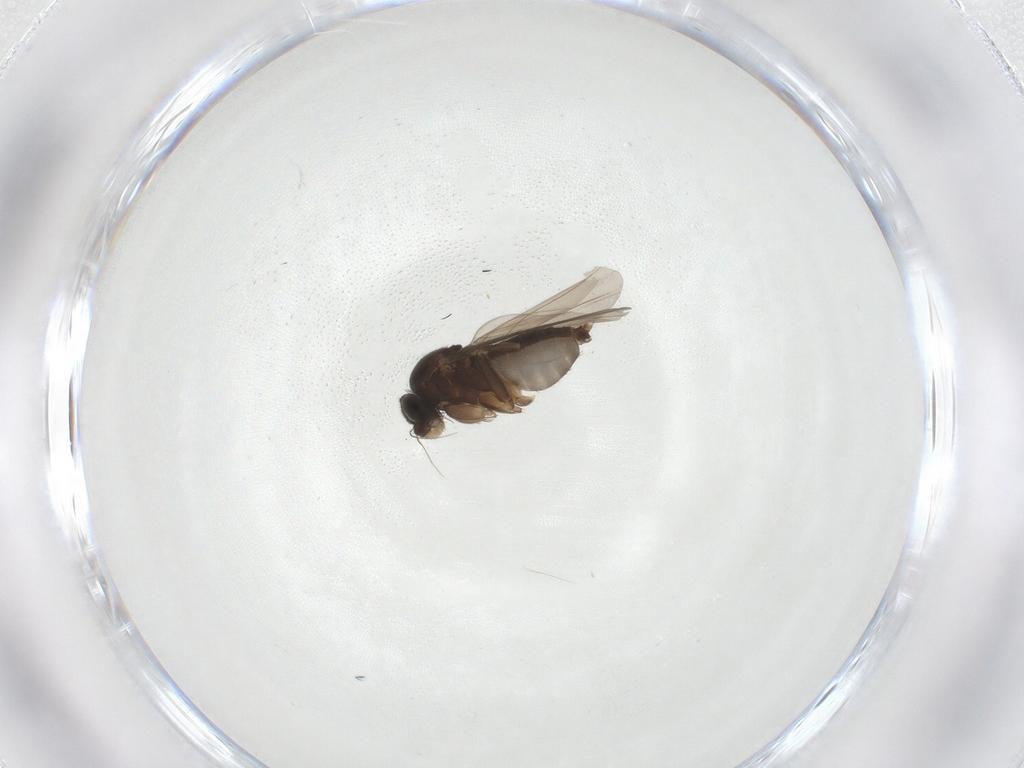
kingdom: Animalia
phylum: Arthropoda
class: Insecta
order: Diptera
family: Phoridae
